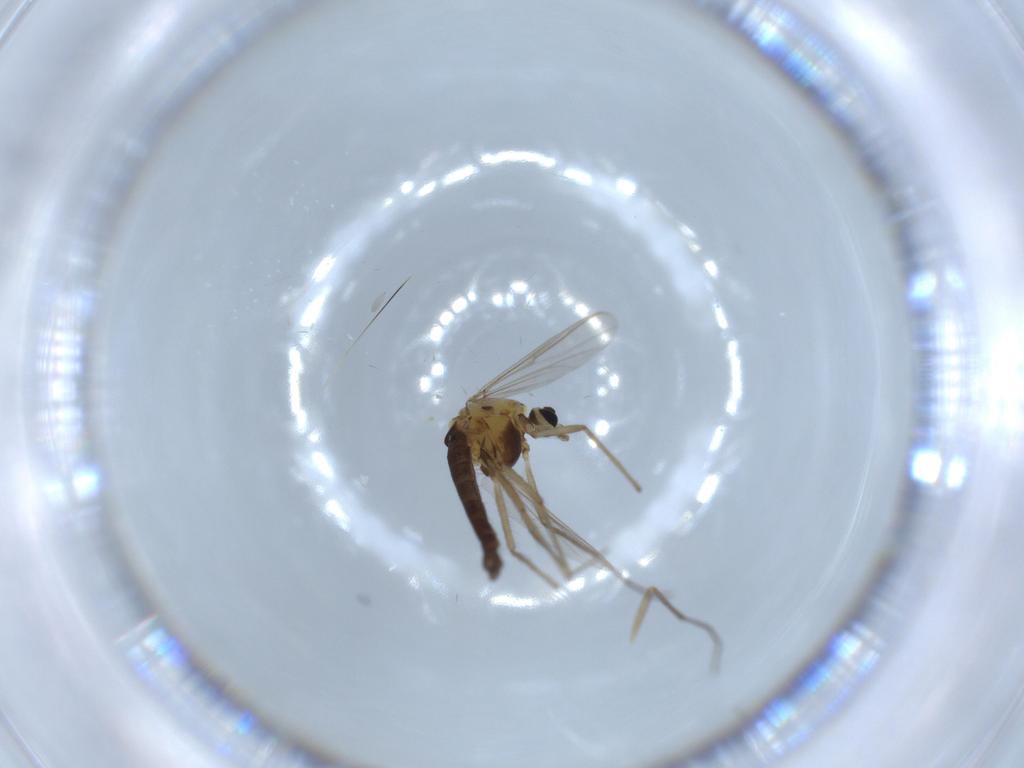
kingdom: Animalia
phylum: Arthropoda
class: Insecta
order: Diptera
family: Chironomidae
